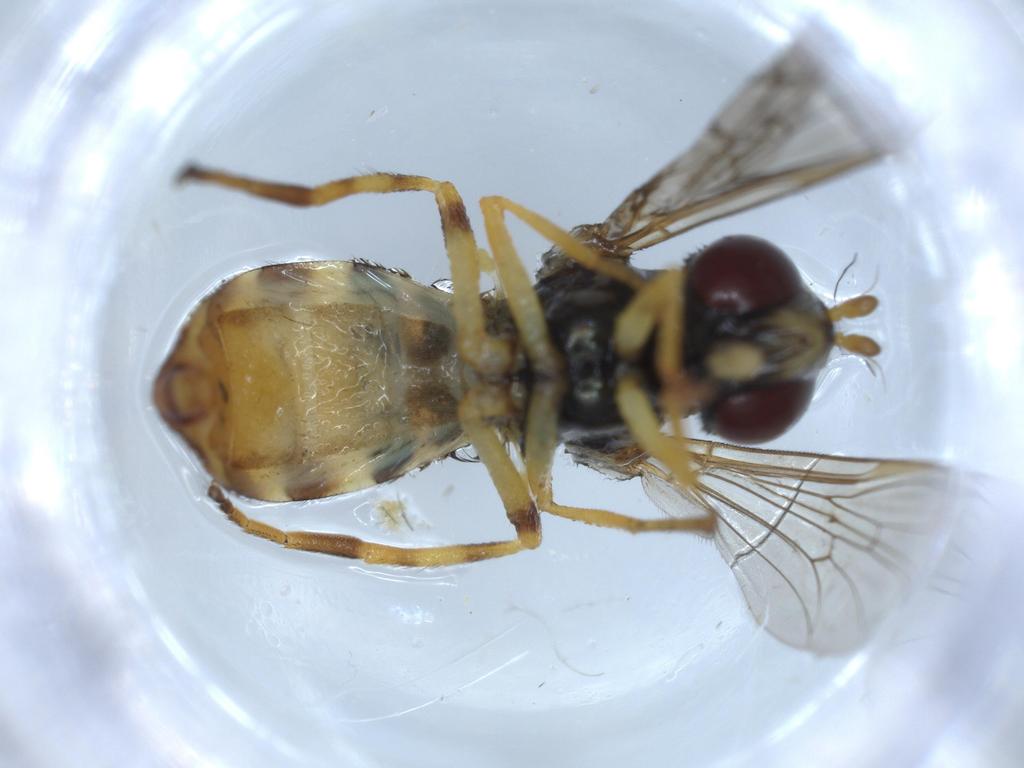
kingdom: Animalia
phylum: Arthropoda
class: Insecta
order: Diptera
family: Syrphidae
